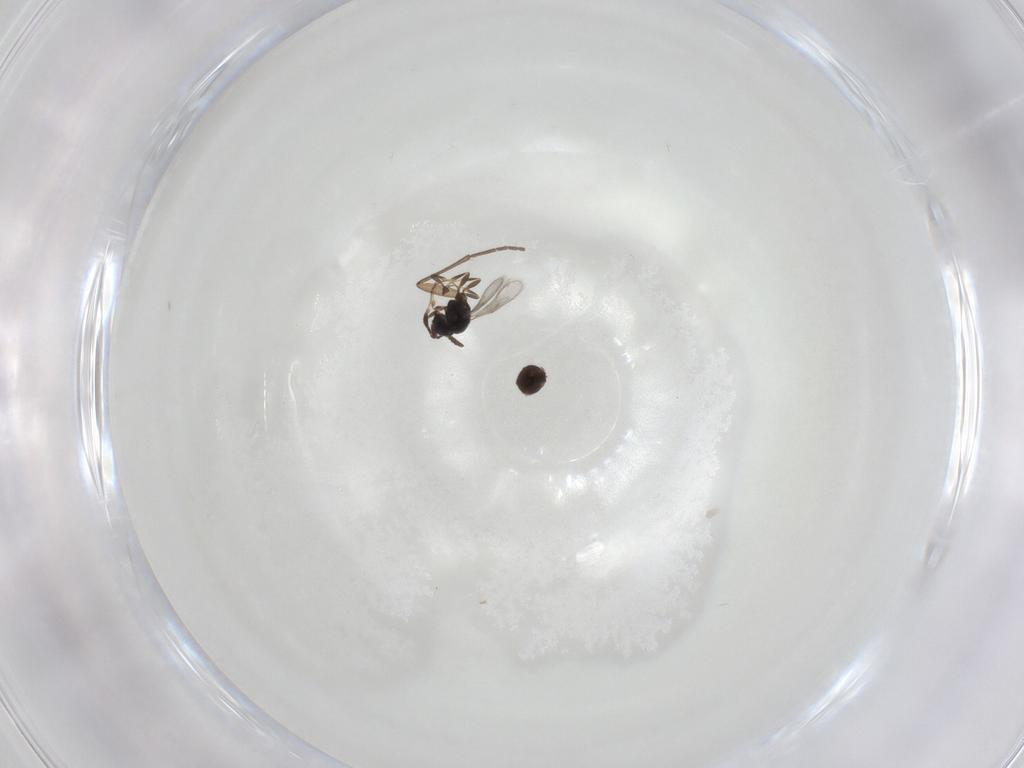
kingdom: Animalia
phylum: Arthropoda
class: Insecta
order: Hymenoptera
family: Scelionidae
